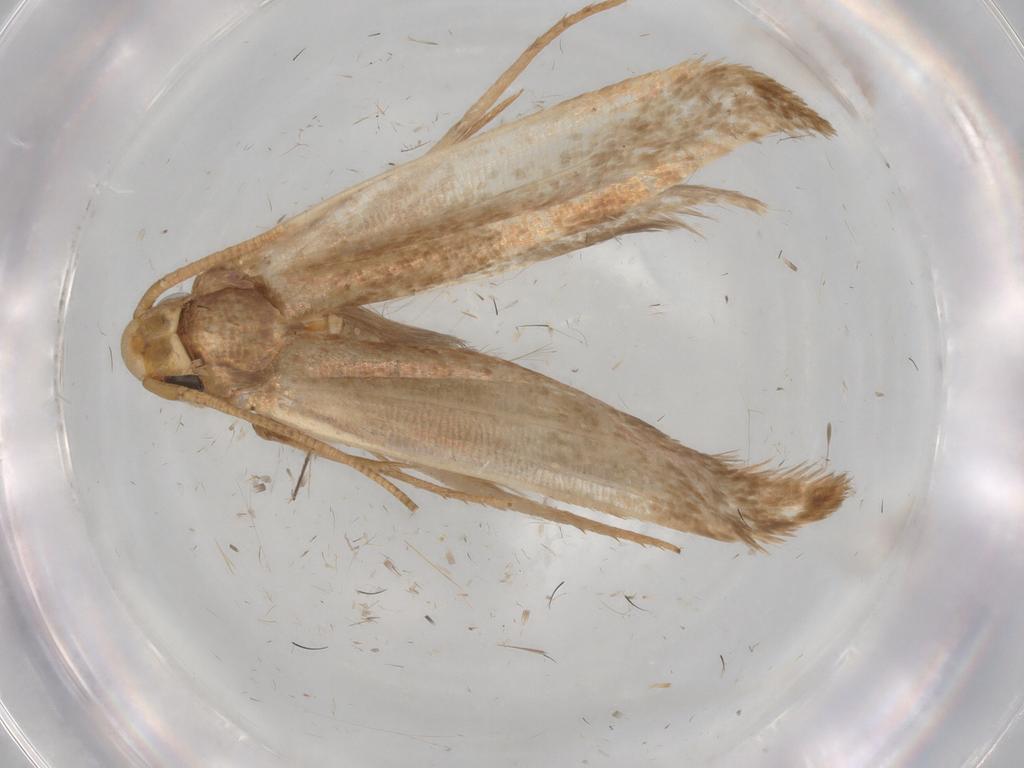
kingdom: Animalia
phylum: Arthropoda
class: Insecta
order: Lepidoptera
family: Tineidae
